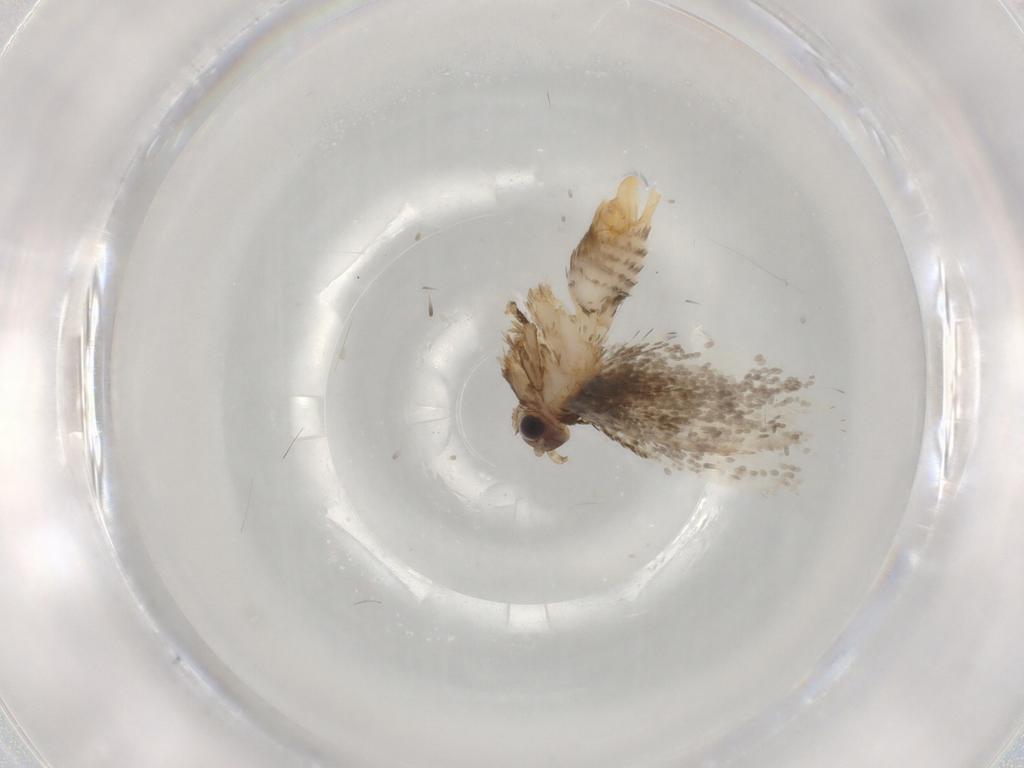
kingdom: Animalia
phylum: Arthropoda
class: Insecta
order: Lepidoptera
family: Tineidae
